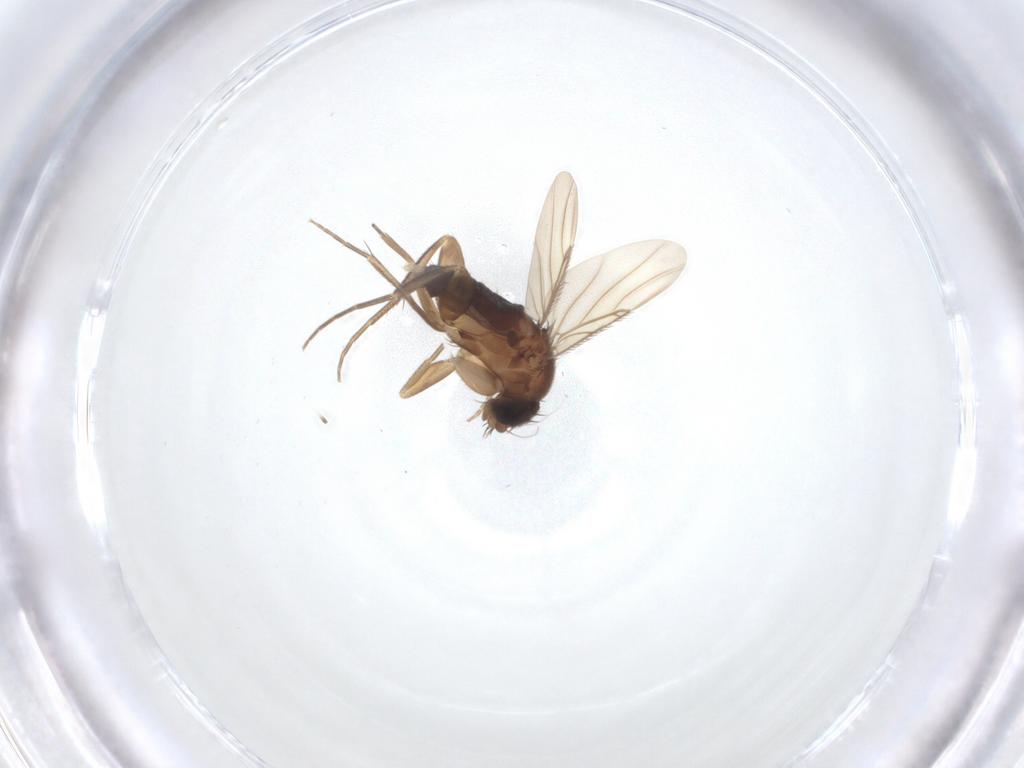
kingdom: Animalia
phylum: Arthropoda
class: Insecta
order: Diptera
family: Phoridae
